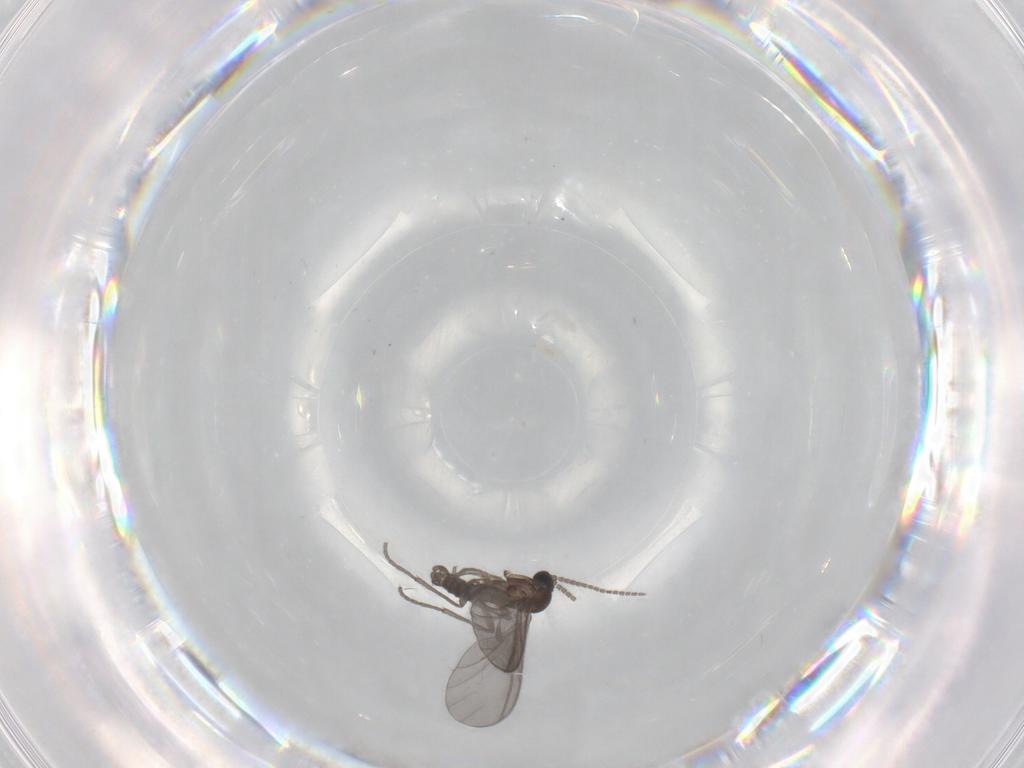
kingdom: Animalia
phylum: Arthropoda
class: Insecta
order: Diptera
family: Sciaridae
